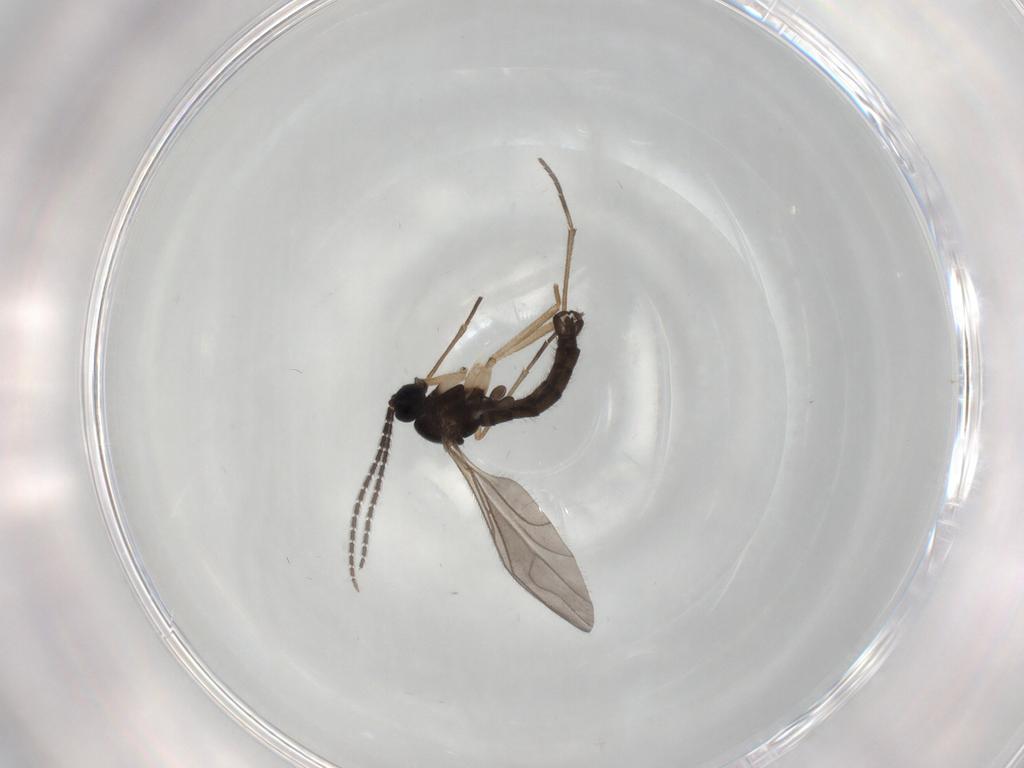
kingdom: Animalia
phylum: Arthropoda
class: Insecta
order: Diptera
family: Sciaridae
